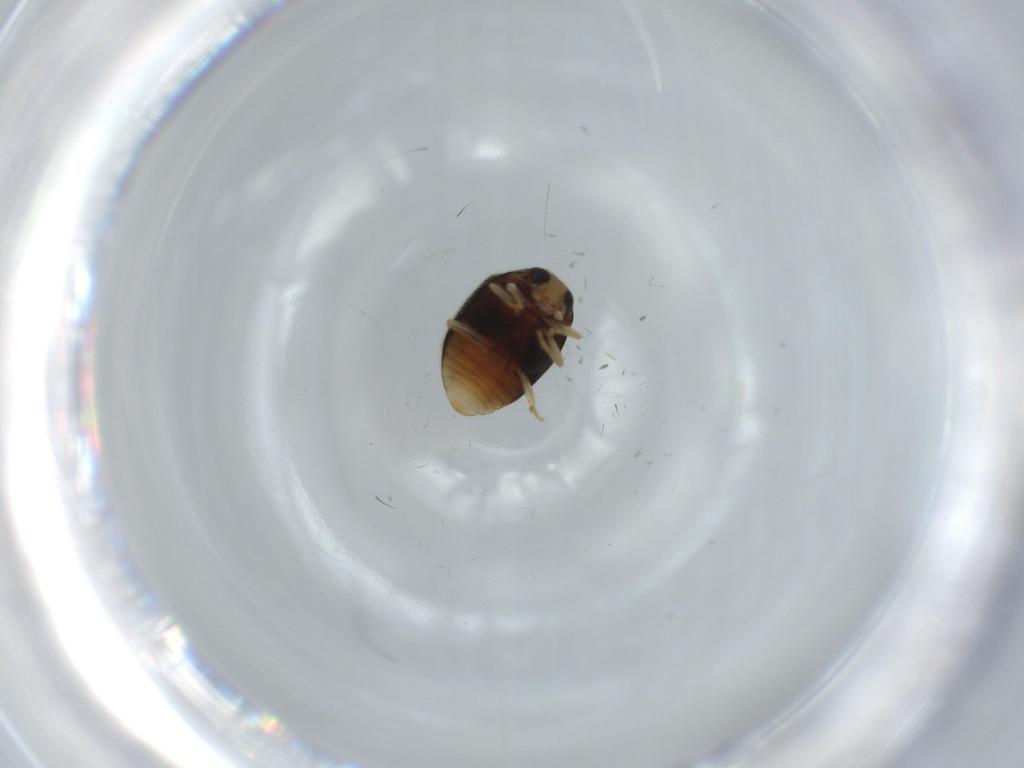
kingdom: Animalia
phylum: Arthropoda
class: Insecta
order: Coleoptera
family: Coccinellidae
